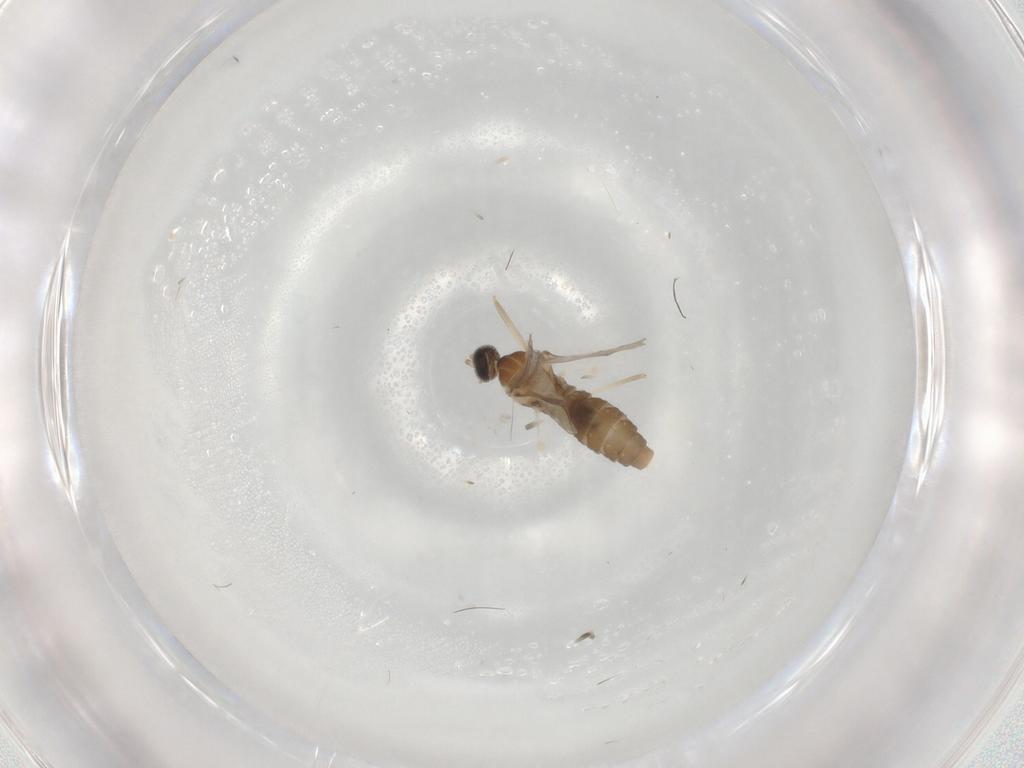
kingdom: Animalia
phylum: Arthropoda
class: Insecta
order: Diptera
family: Cecidomyiidae
